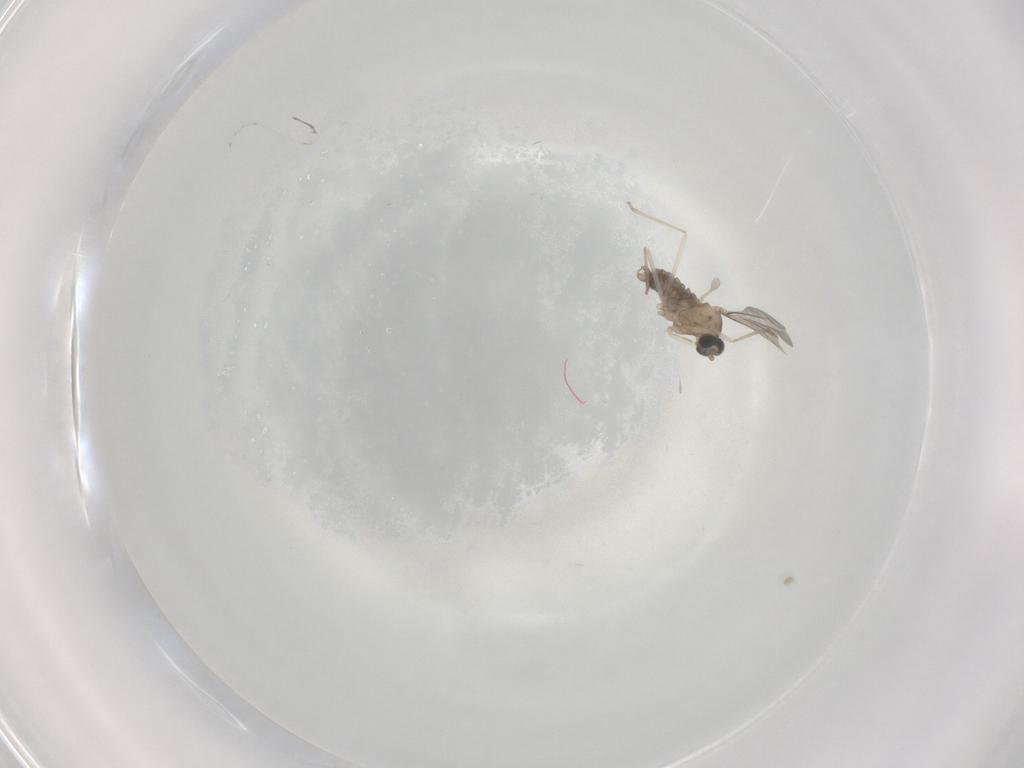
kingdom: Animalia
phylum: Arthropoda
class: Insecta
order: Diptera
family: Cecidomyiidae
